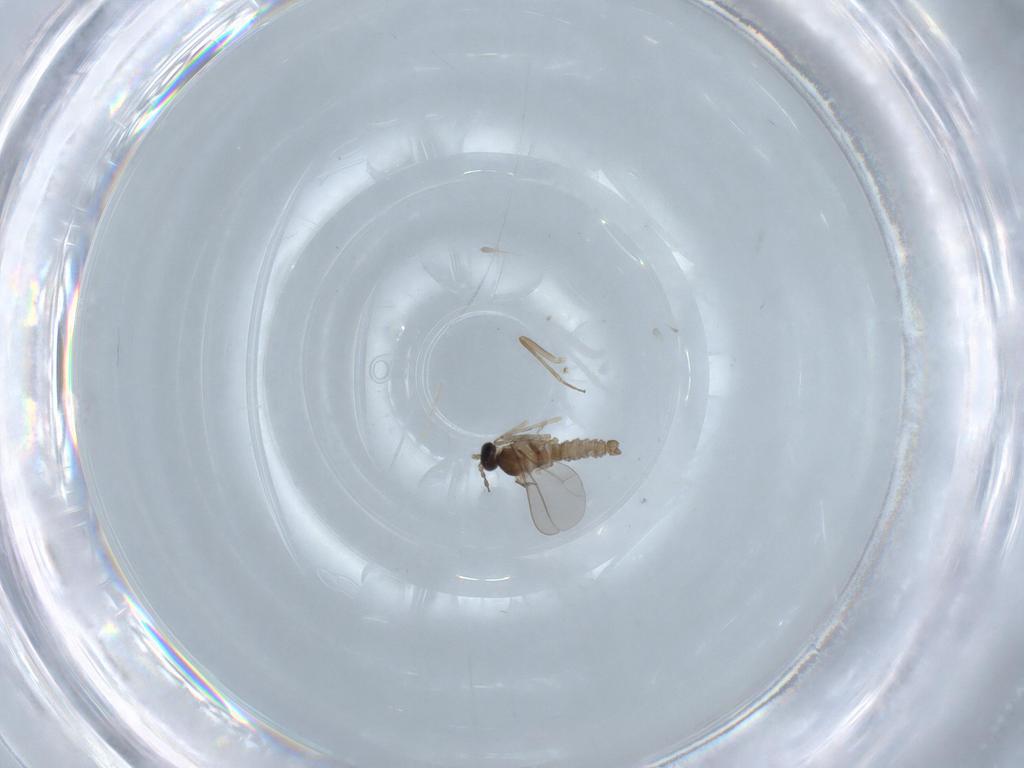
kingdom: Animalia
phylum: Arthropoda
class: Insecta
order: Diptera
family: Cecidomyiidae
